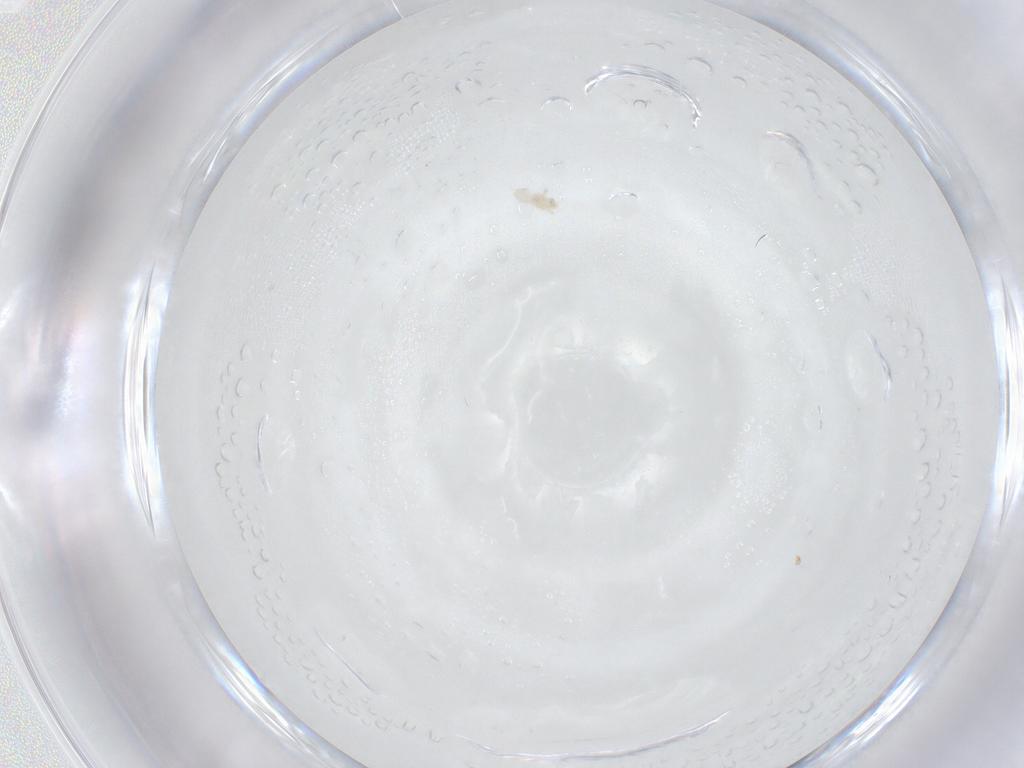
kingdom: Animalia
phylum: Arthropoda
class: Arachnida
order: Mesostigmata
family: Melicharidae
